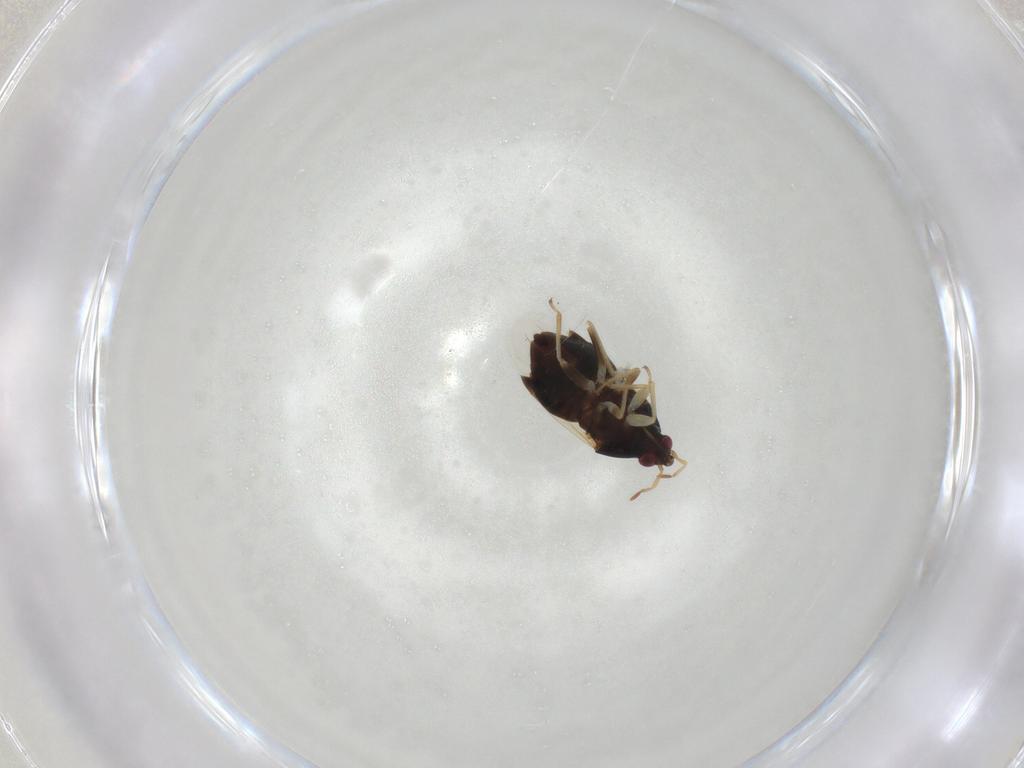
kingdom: Animalia
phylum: Arthropoda
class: Insecta
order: Hemiptera
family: Anthocoridae
